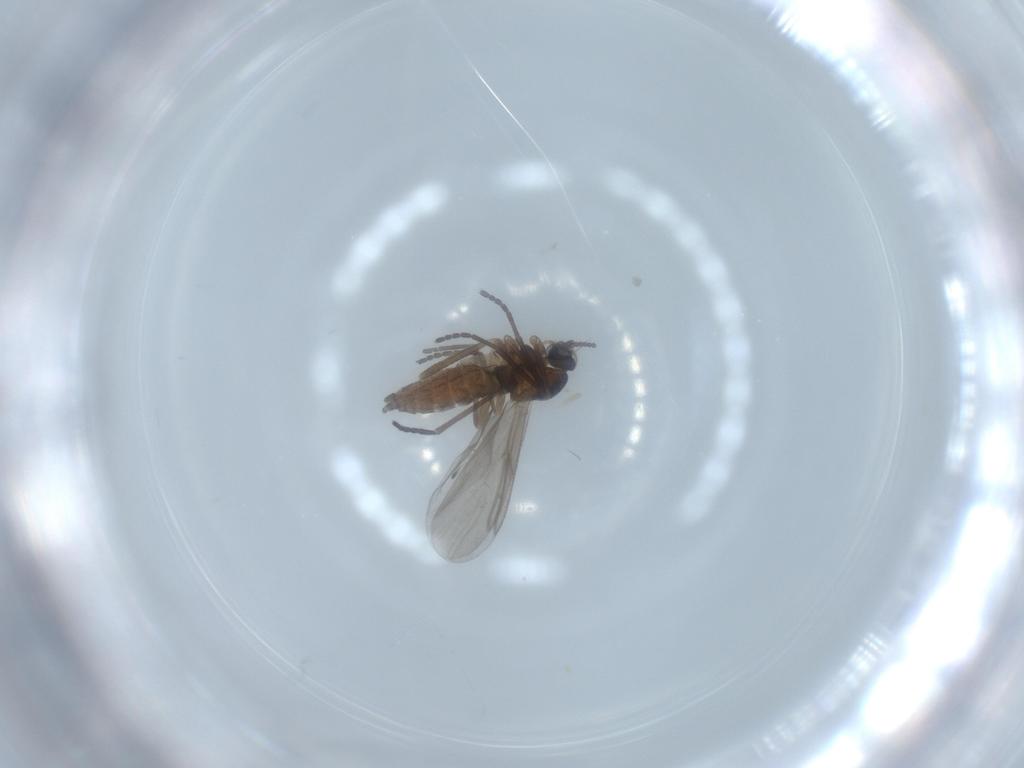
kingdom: Animalia
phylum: Arthropoda
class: Insecta
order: Diptera
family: Cecidomyiidae
